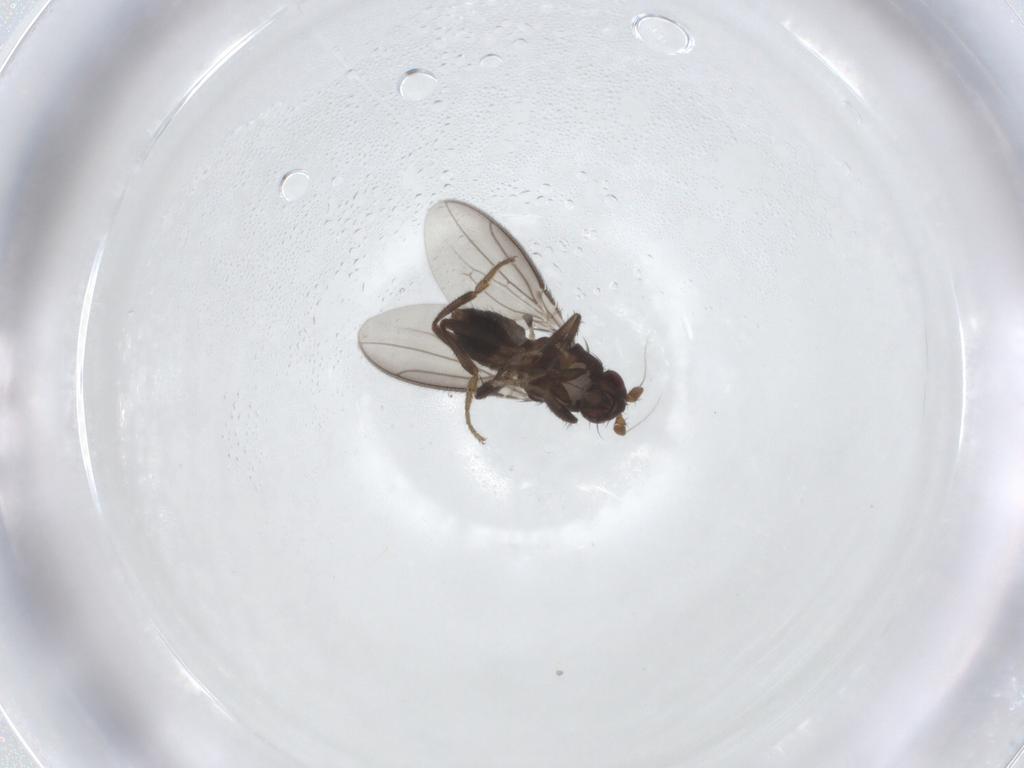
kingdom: Animalia
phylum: Arthropoda
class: Insecta
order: Diptera
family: Sphaeroceridae
